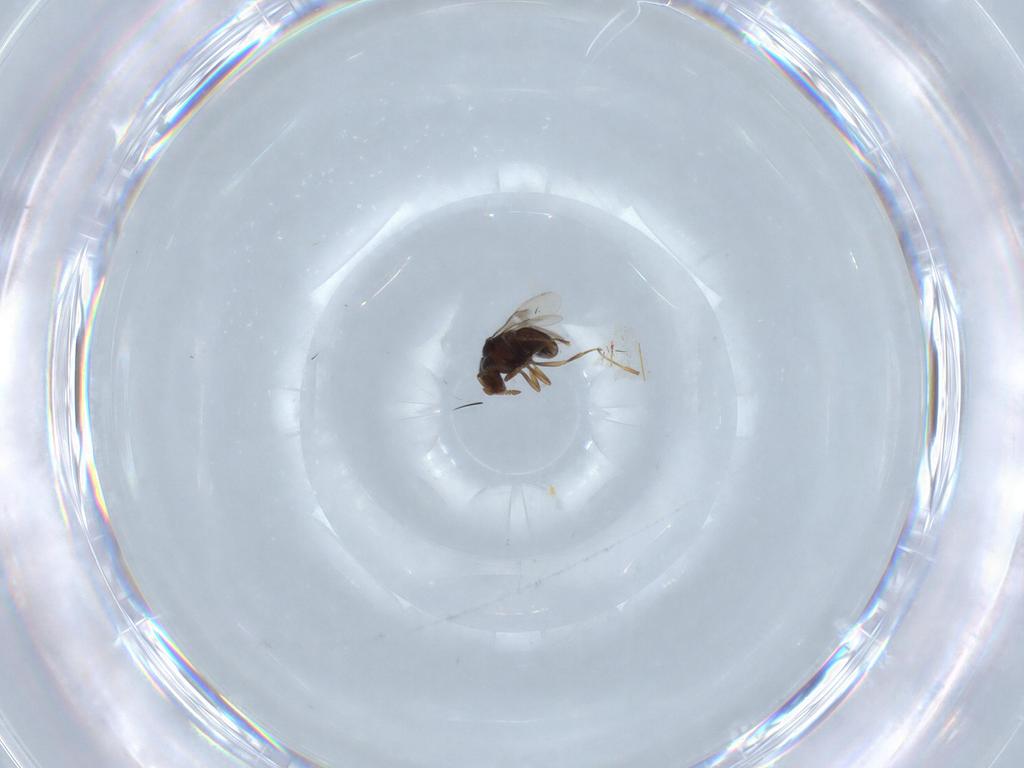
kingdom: Animalia
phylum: Arthropoda
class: Insecta
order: Hymenoptera
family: Scelionidae
